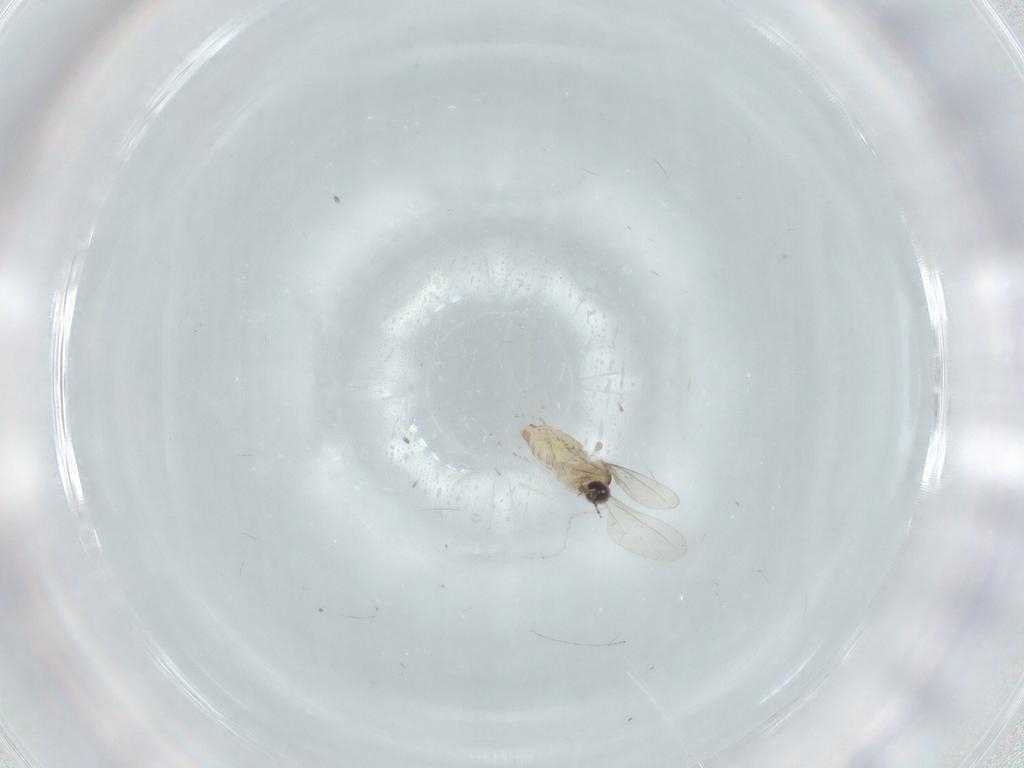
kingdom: Animalia
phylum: Arthropoda
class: Insecta
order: Diptera
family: Cecidomyiidae
